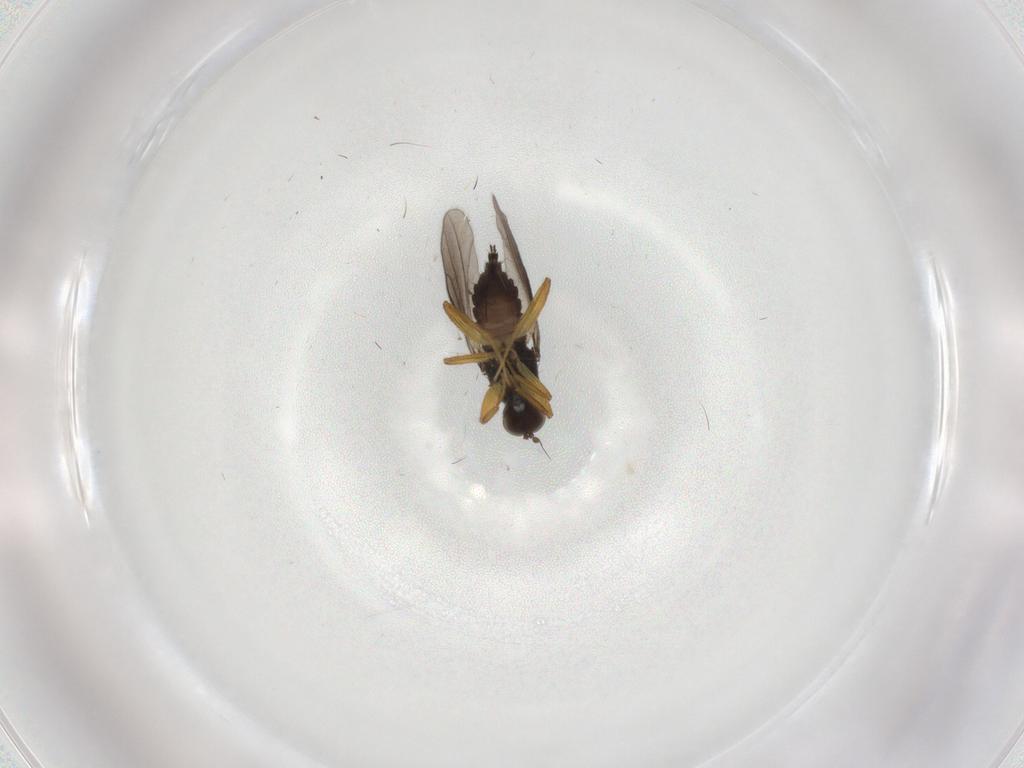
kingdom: Animalia
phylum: Arthropoda
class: Insecta
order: Diptera
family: Hybotidae
